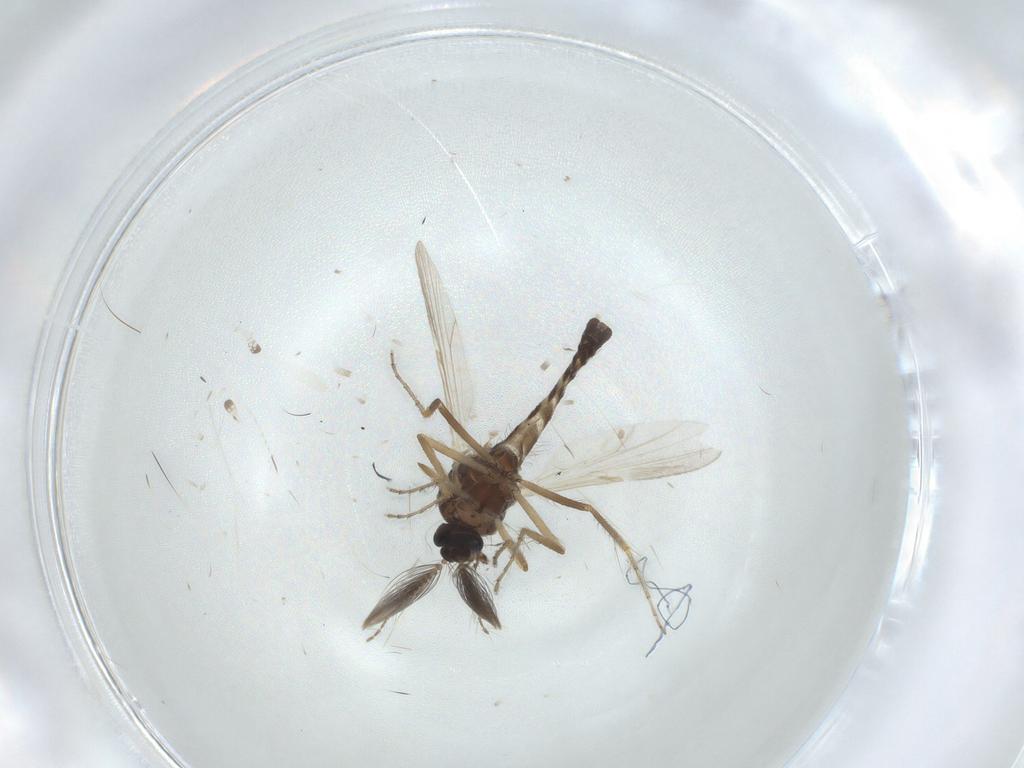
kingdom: Animalia
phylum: Arthropoda
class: Insecta
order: Diptera
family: Ceratopogonidae
